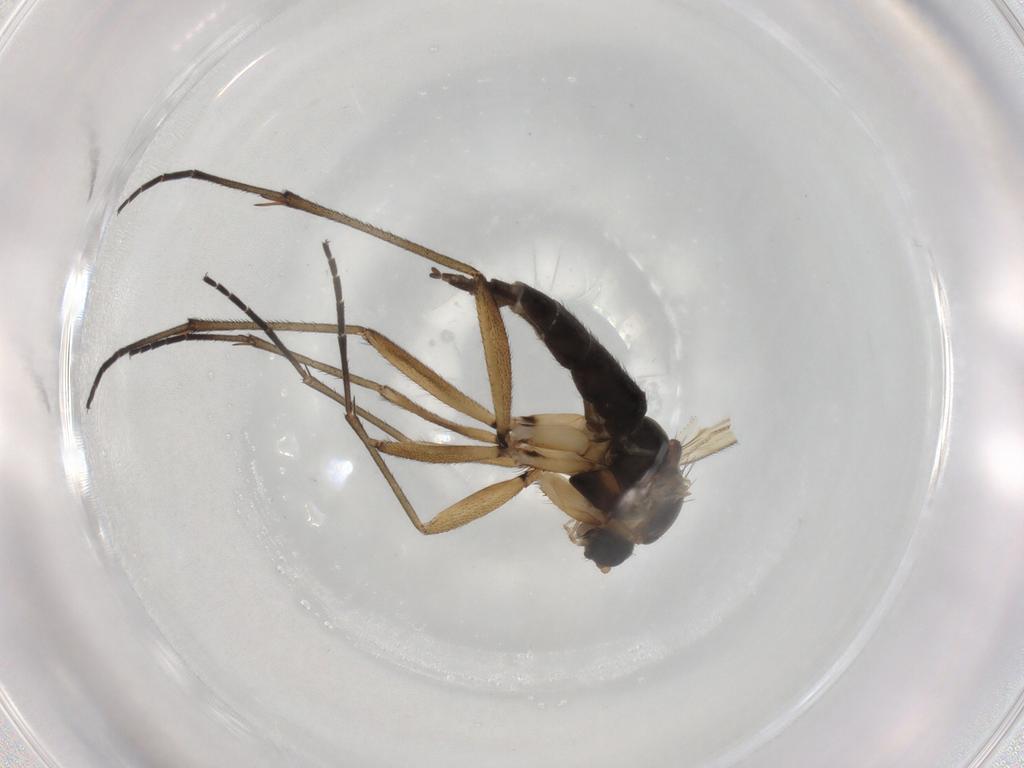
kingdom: Animalia
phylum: Arthropoda
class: Insecta
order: Diptera
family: Sciaridae
